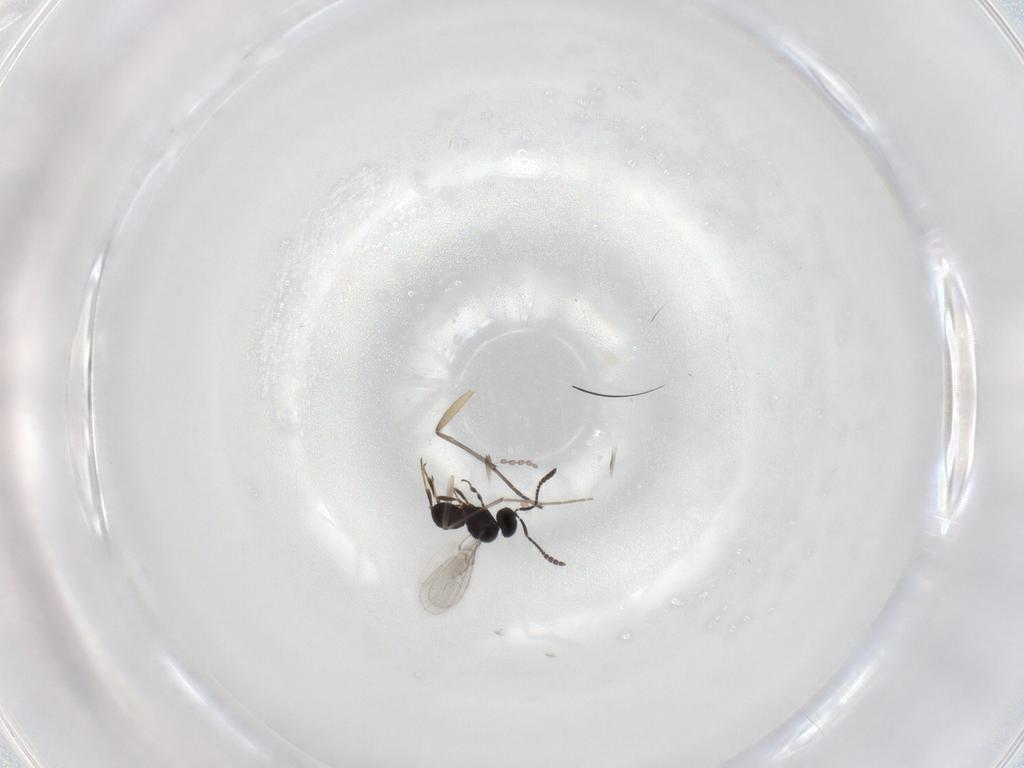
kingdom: Animalia
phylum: Arthropoda
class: Insecta
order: Hymenoptera
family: Scelionidae
